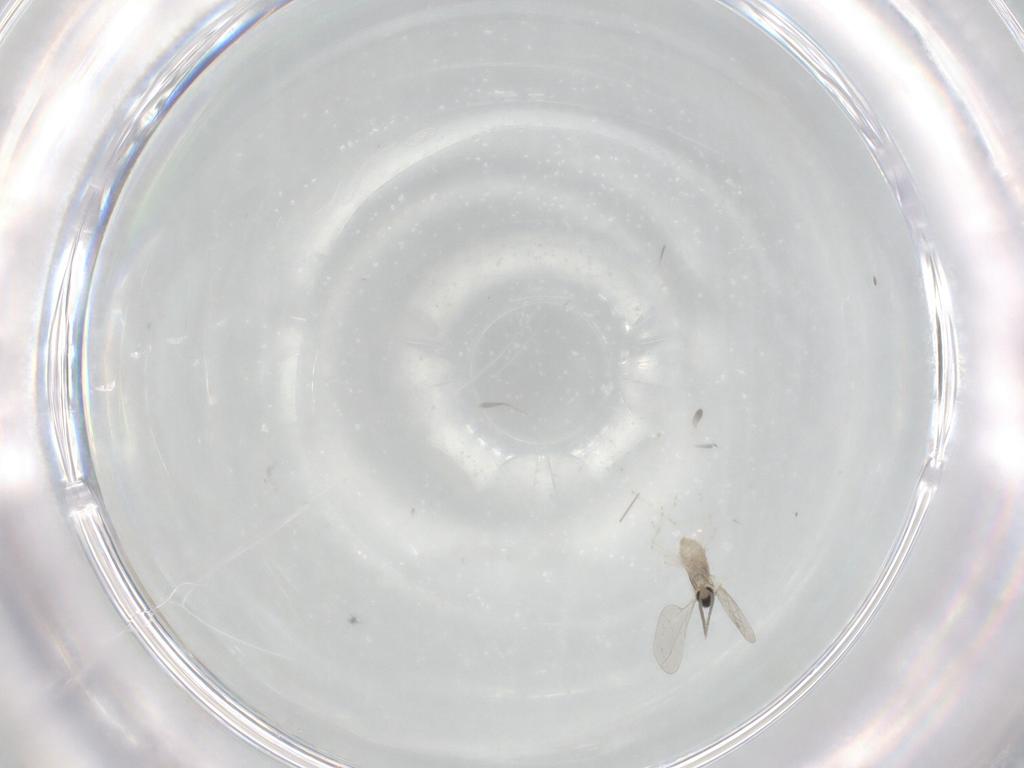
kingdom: Animalia
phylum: Arthropoda
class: Insecta
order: Diptera
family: Cecidomyiidae
